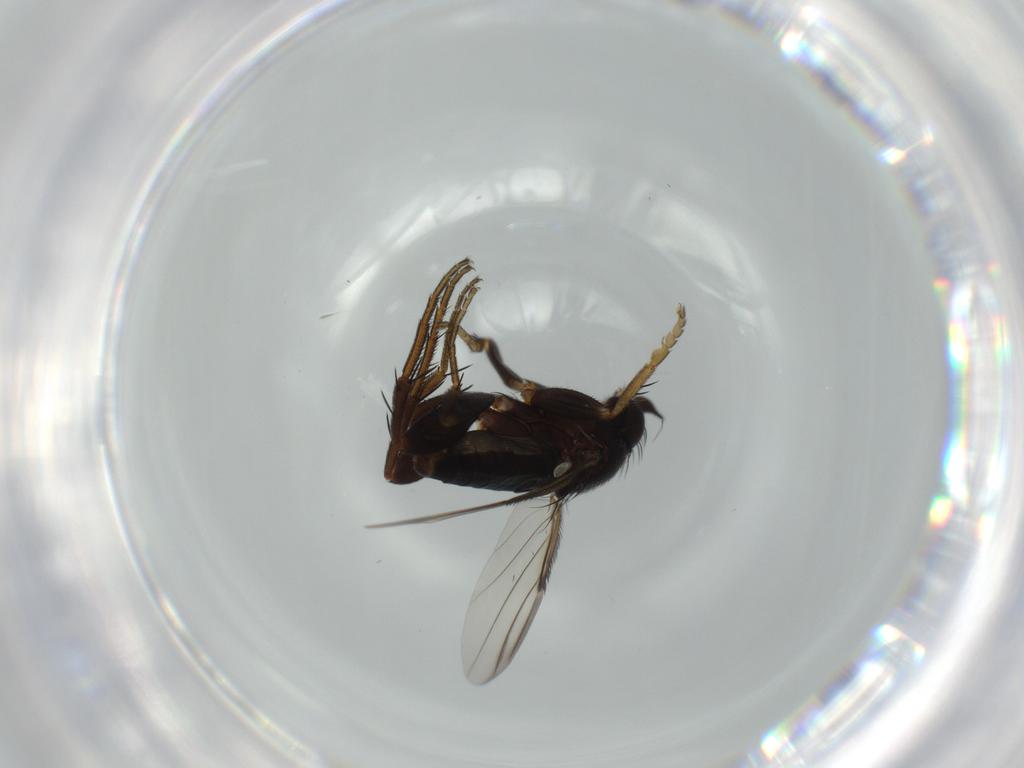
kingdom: Animalia
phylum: Arthropoda
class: Insecta
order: Diptera
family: Phoridae
